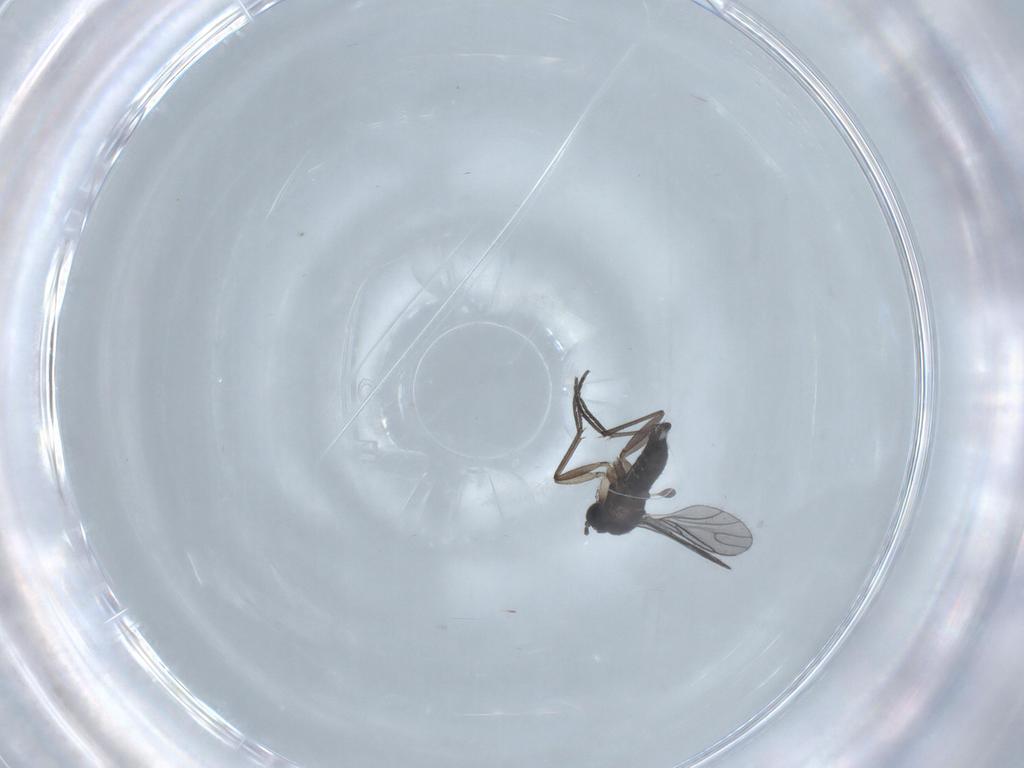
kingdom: Animalia
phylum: Arthropoda
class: Insecta
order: Diptera
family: Sciaridae
